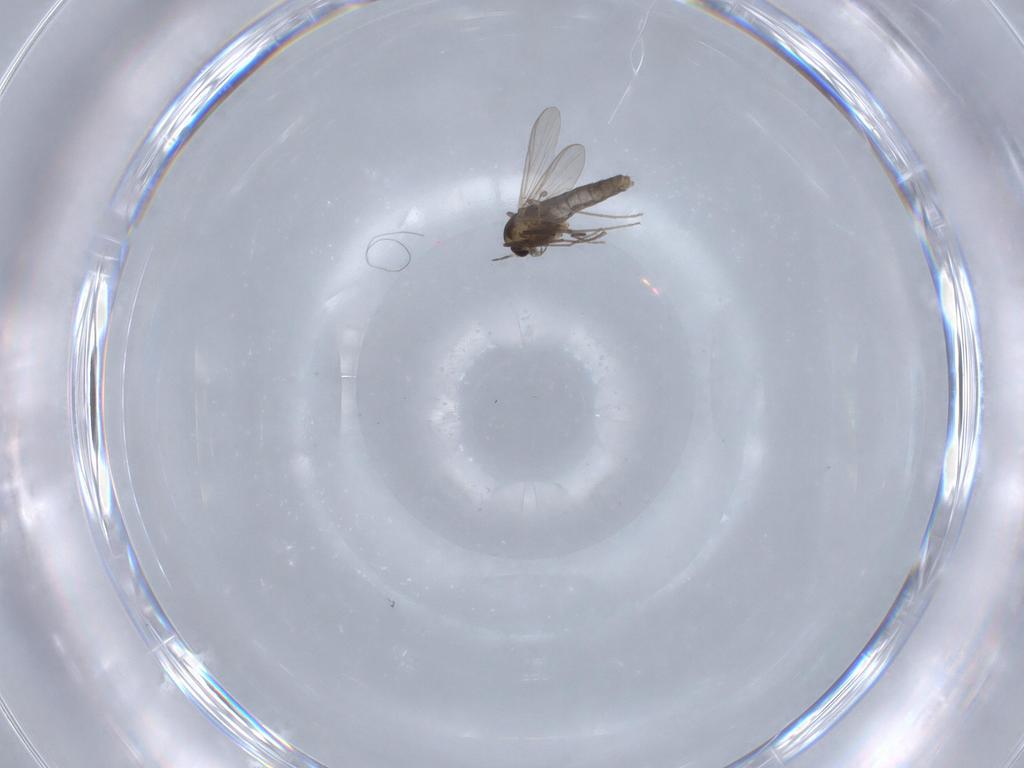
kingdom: Animalia
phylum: Arthropoda
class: Insecta
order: Diptera
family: Chironomidae
